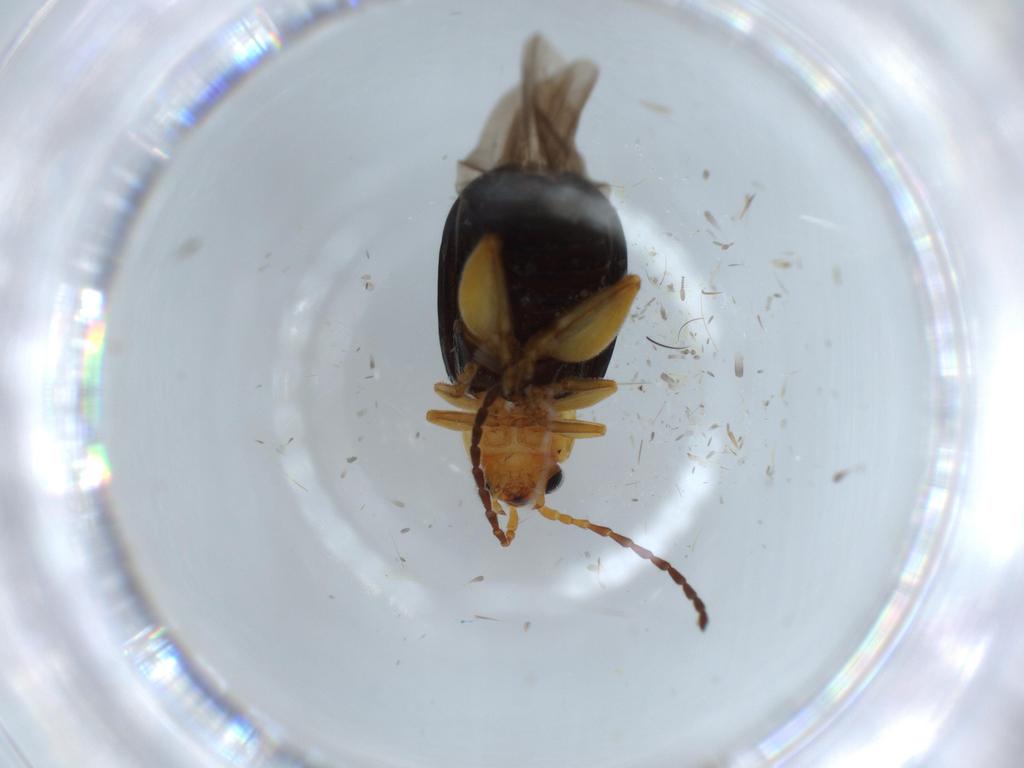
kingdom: Animalia
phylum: Arthropoda
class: Insecta
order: Coleoptera
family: Chrysomelidae
